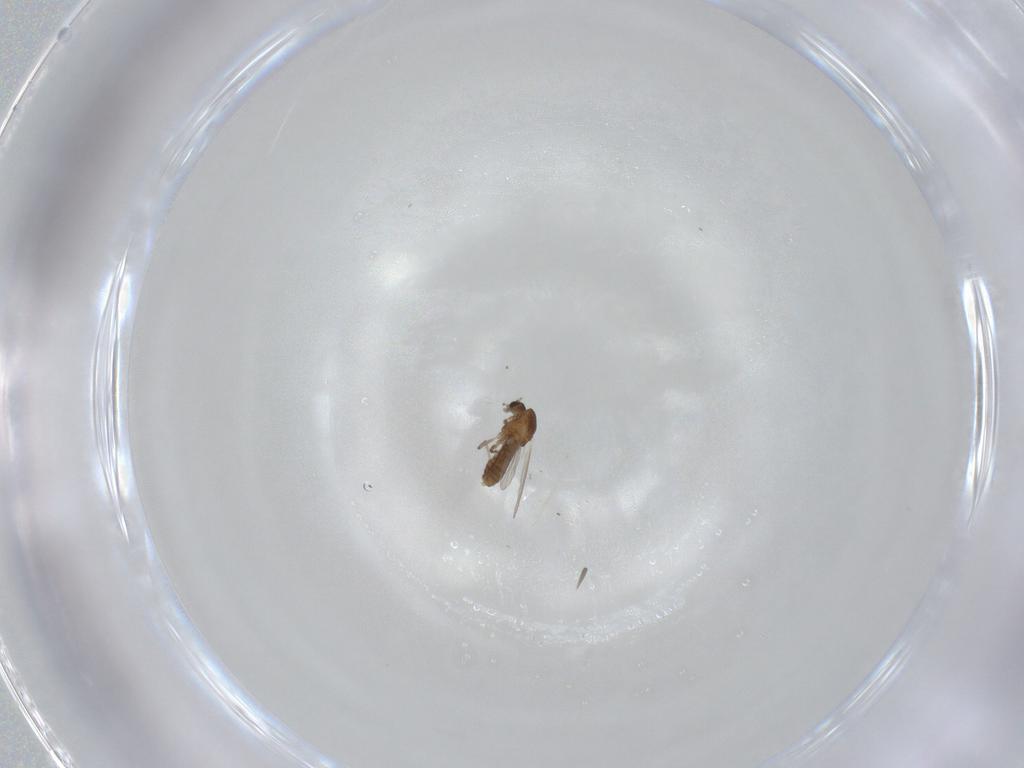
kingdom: Animalia
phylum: Arthropoda
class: Insecta
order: Diptera
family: Chironomidae
